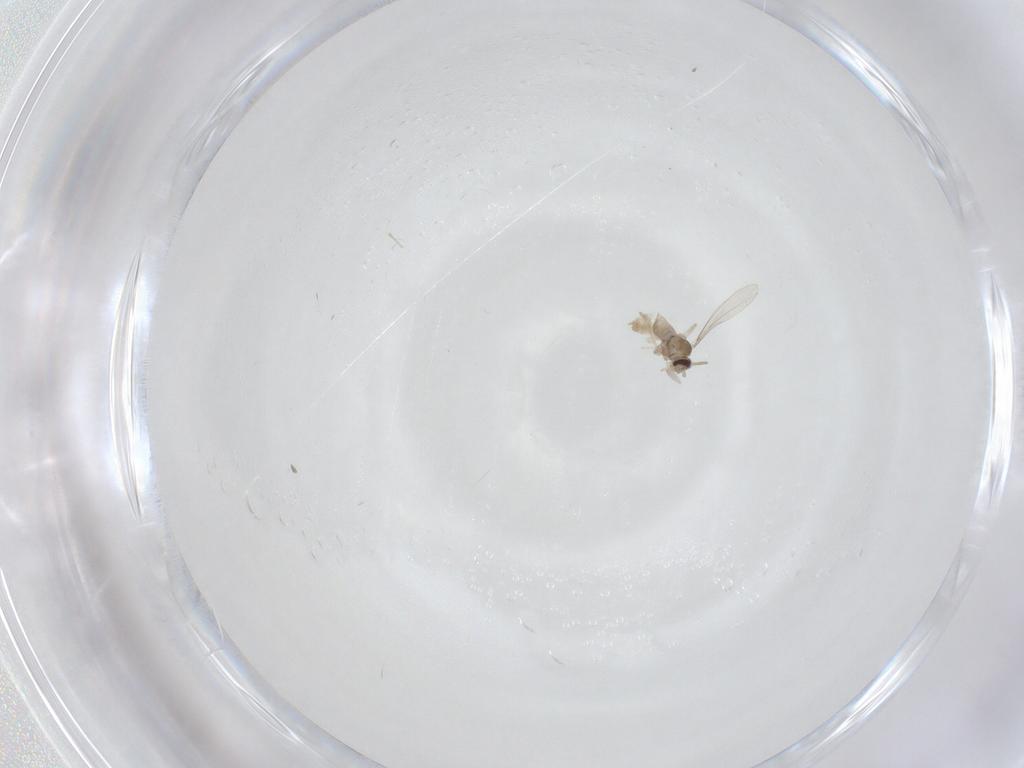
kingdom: Animalia
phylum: Arthropoda
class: Insecta
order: Diptera
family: Cecidomyiidae
